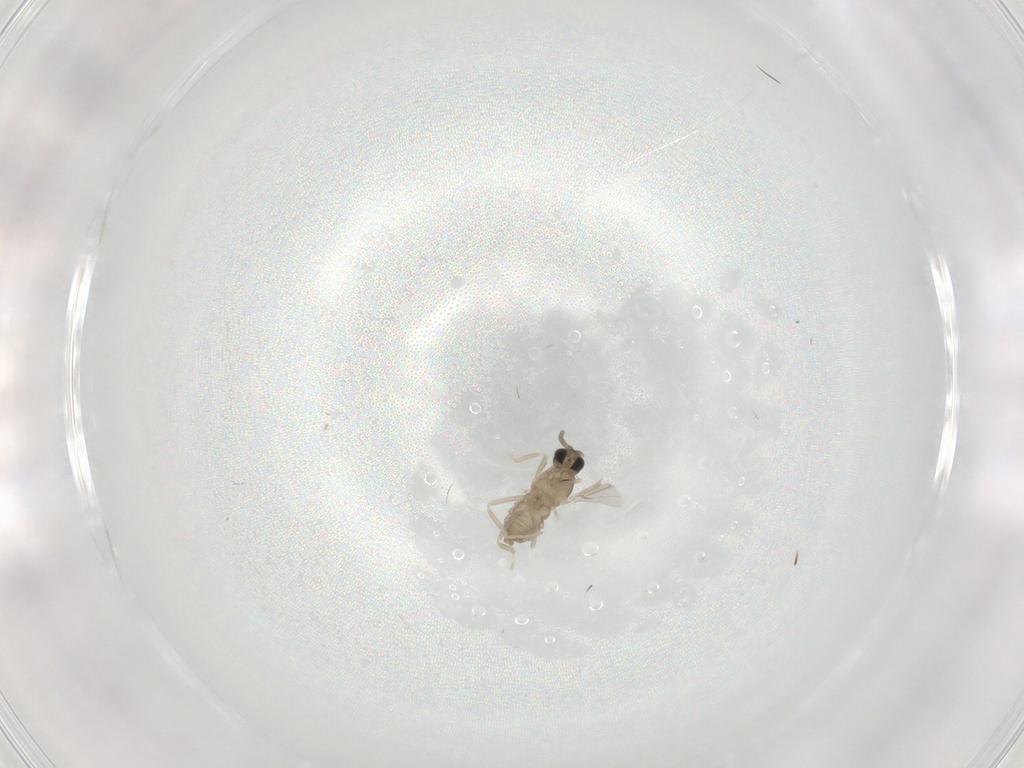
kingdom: Animalia
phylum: Arthropoda
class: Insecta
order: Diptera
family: Cecidomyiidae
